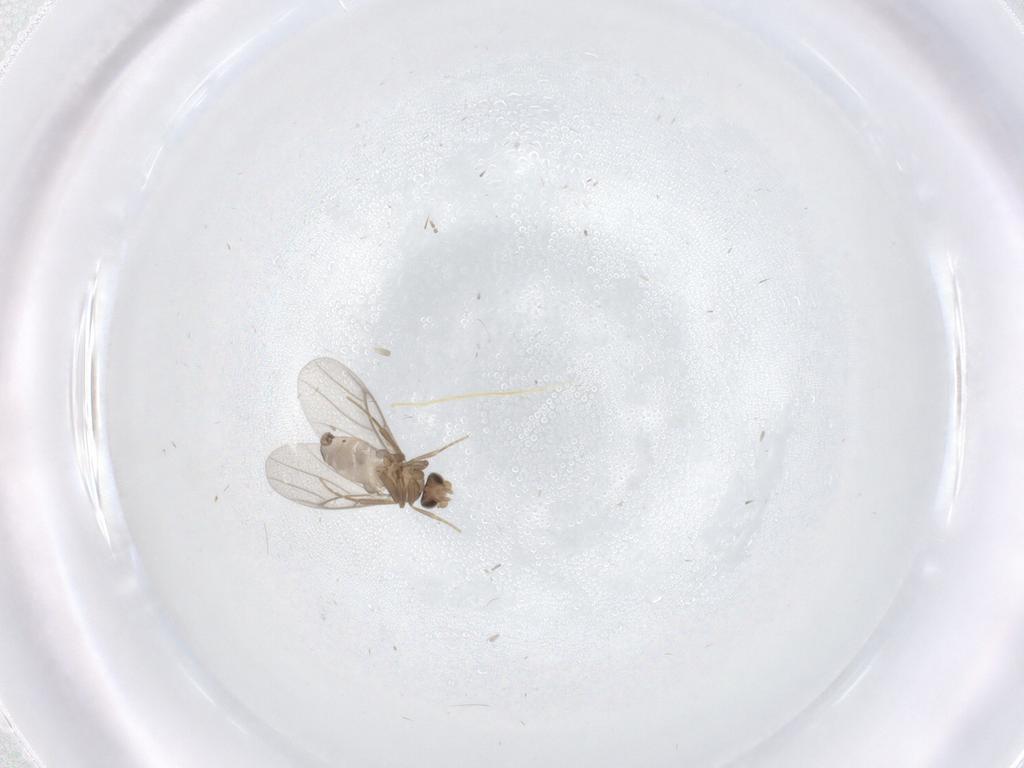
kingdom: Animalia
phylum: Arthropoda
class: Insecta
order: Diptera
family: Keroplatidae
